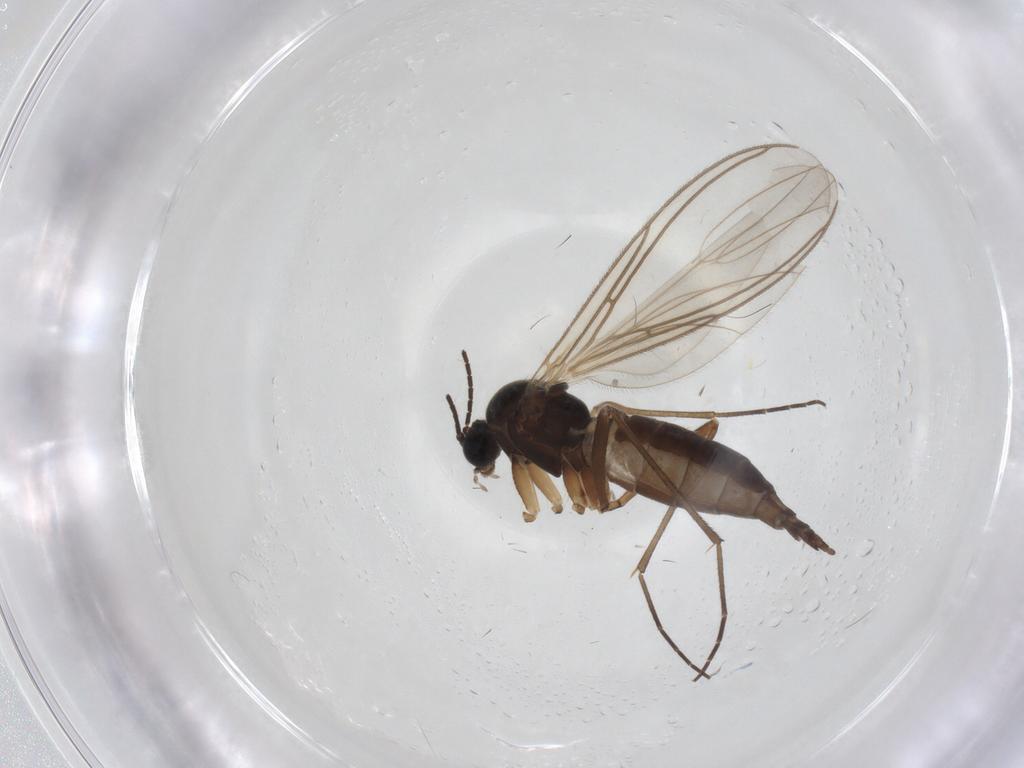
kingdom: Animalia
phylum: Arthropoda
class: Insecta
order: Diptera
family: Sciaridae
